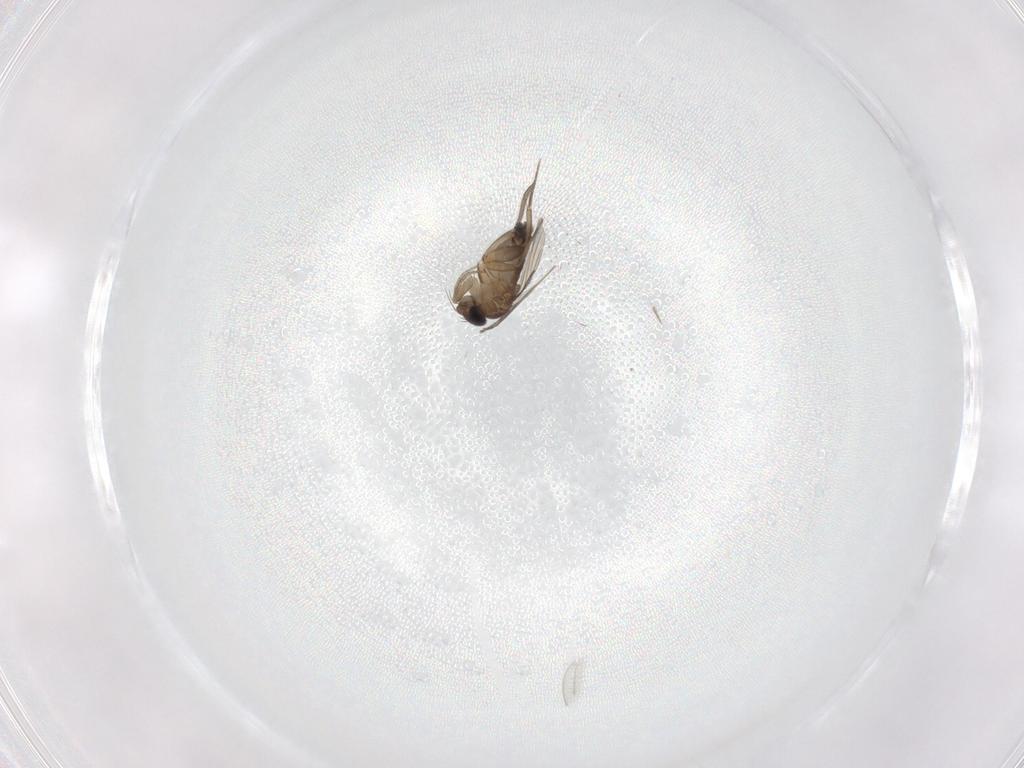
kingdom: Animalia
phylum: Arthropoda
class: Insecta
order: Diptera
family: Phoridae
